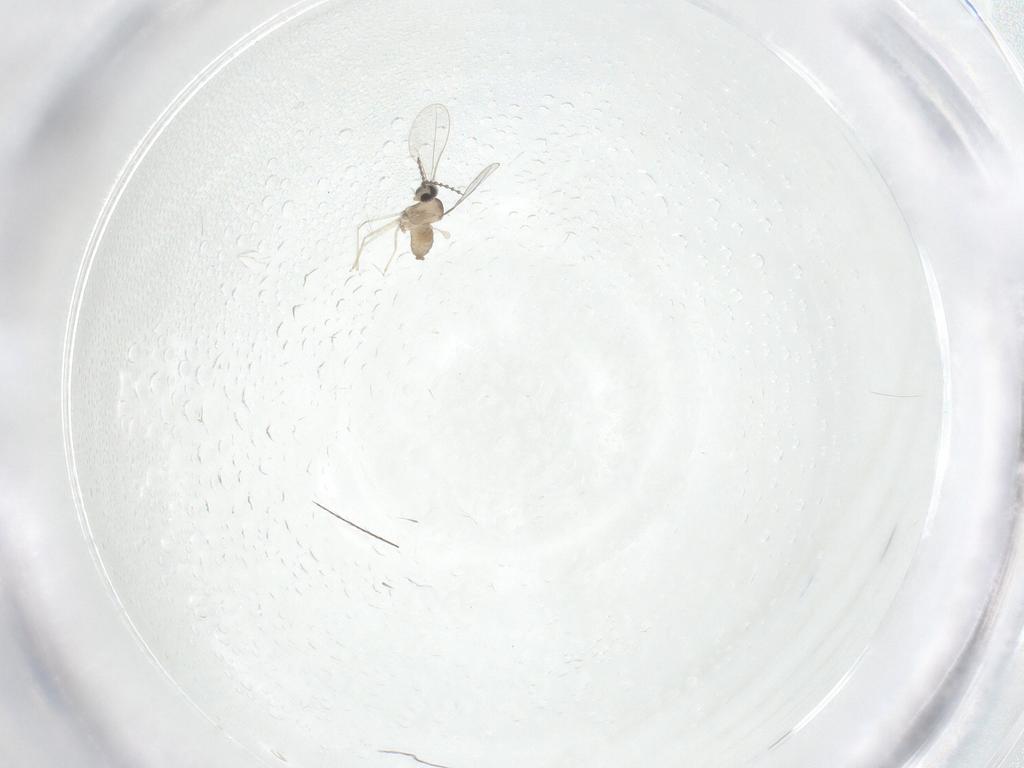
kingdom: Animalia
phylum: Arthropoda
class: Insecta
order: Diptera
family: Cecidomyiidae
